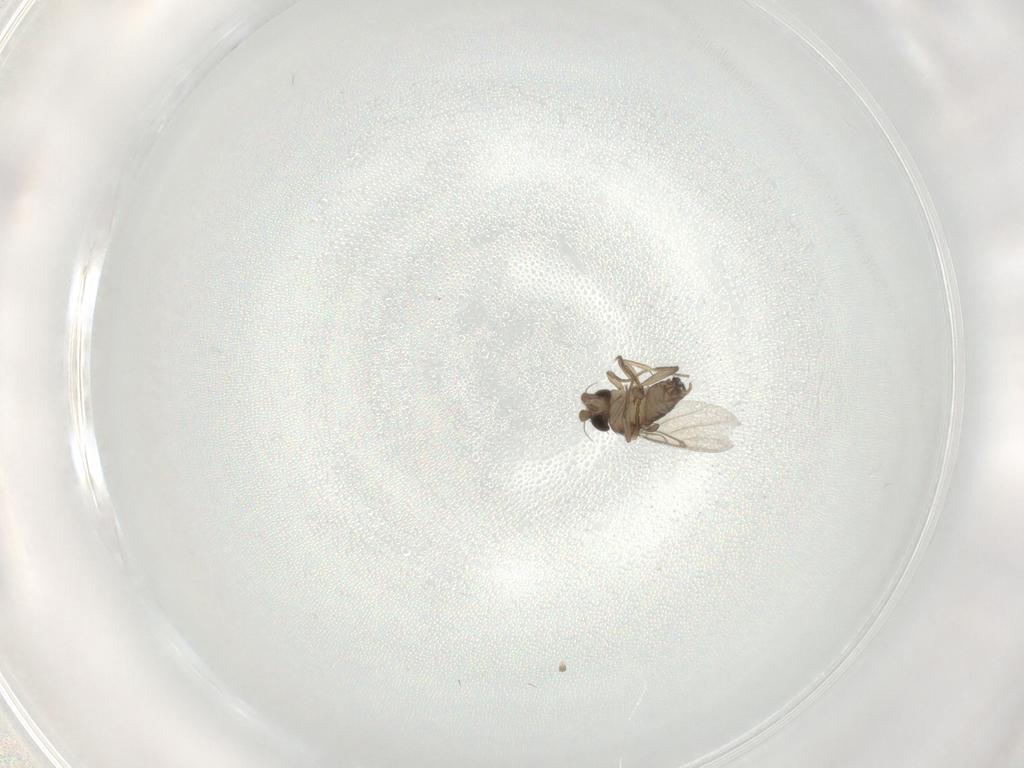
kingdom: Animalia
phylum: Arthropoda
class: Insecta
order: Diptera
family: Phoridae
